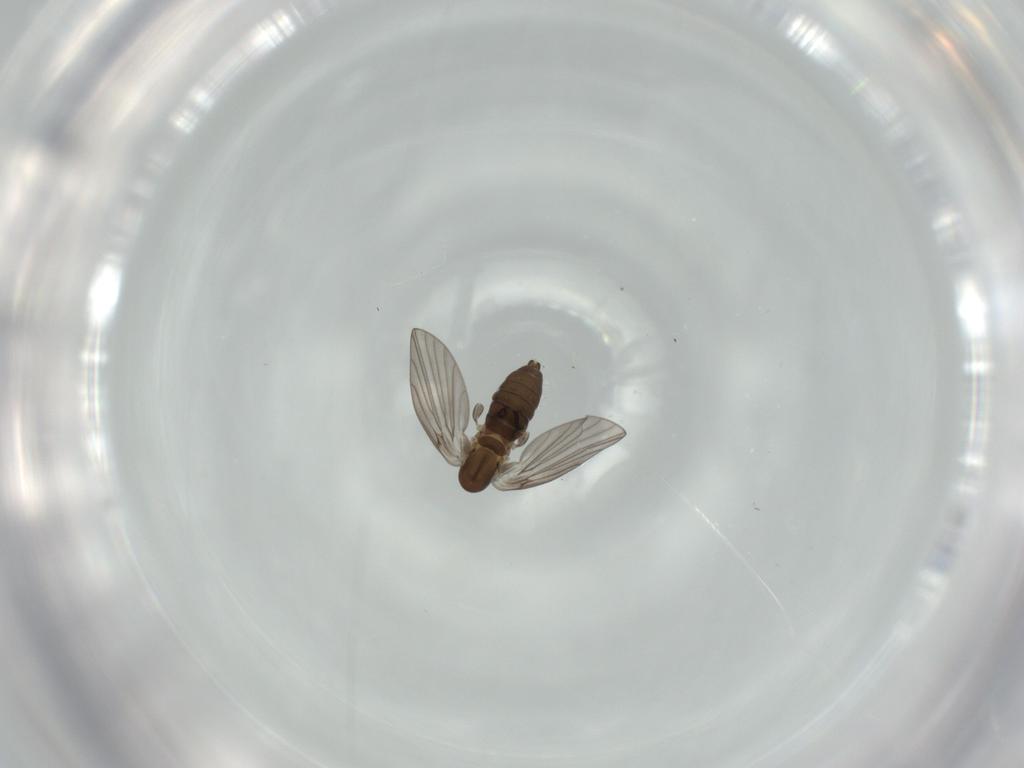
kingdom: Animalia
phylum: Arthropoda
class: Insecta
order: Diptera
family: Psychodidae
